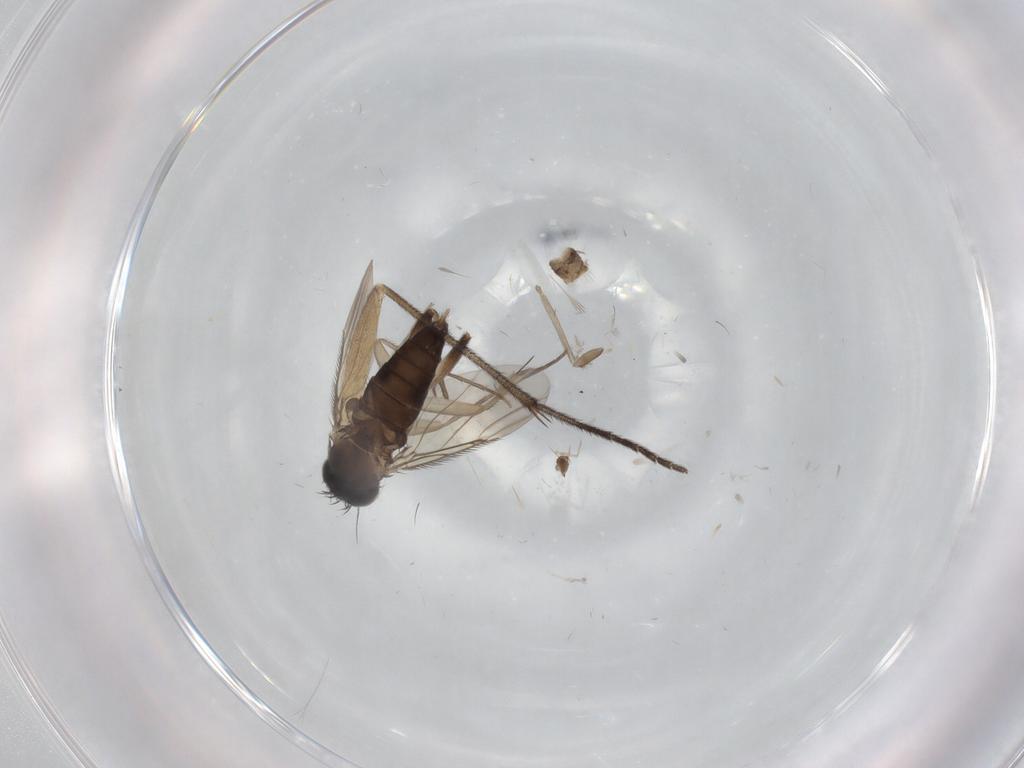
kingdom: Animalia
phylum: Arthropoda
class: Insecta
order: Diptera
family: Phoridae
